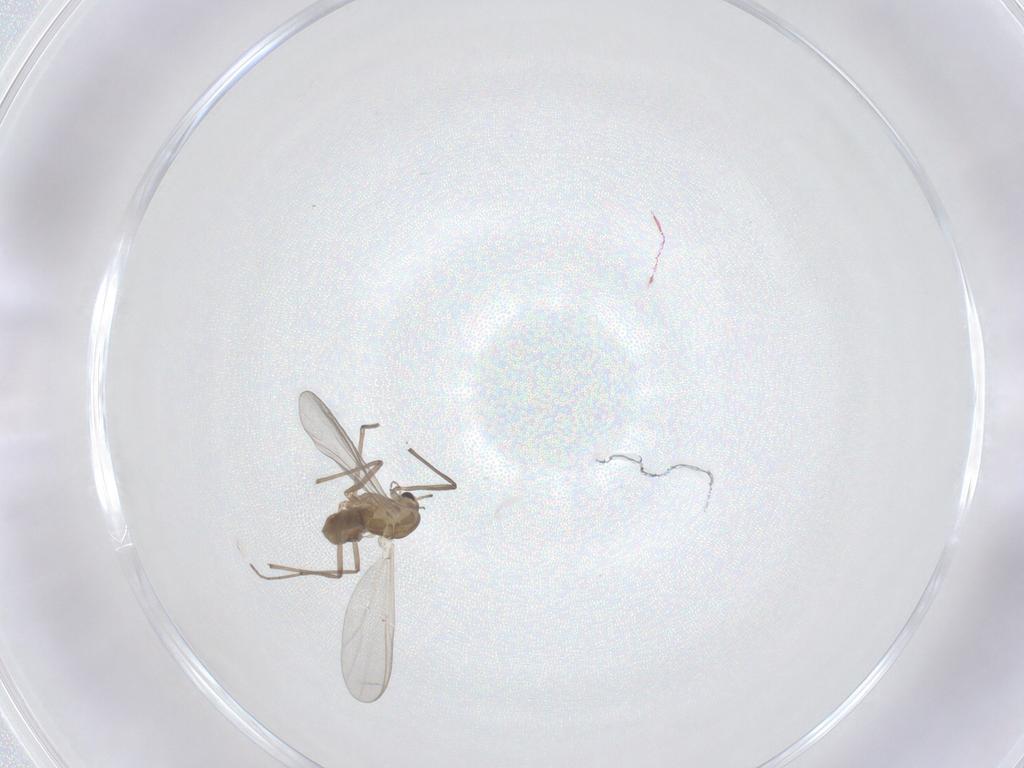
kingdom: Animalia
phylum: Arthropoda
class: Insecta
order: Diptera
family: Chironomidae
